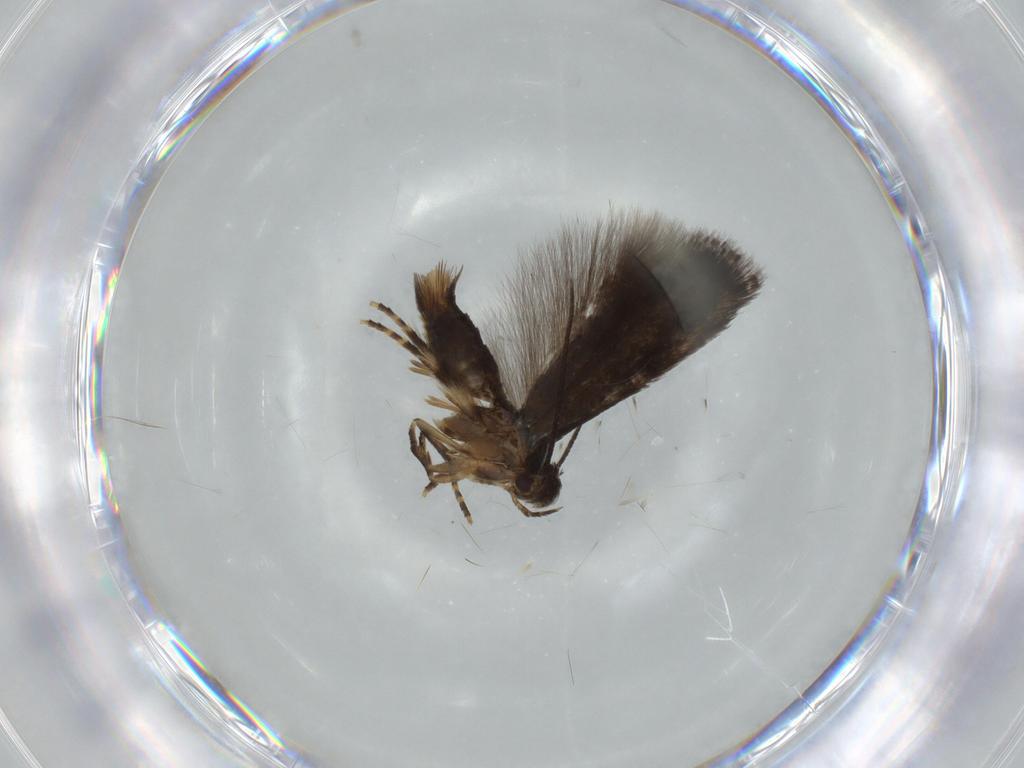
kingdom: Animalia
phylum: Arthropoda
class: Insecta
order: Lepidoptera
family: Gelechiidae
